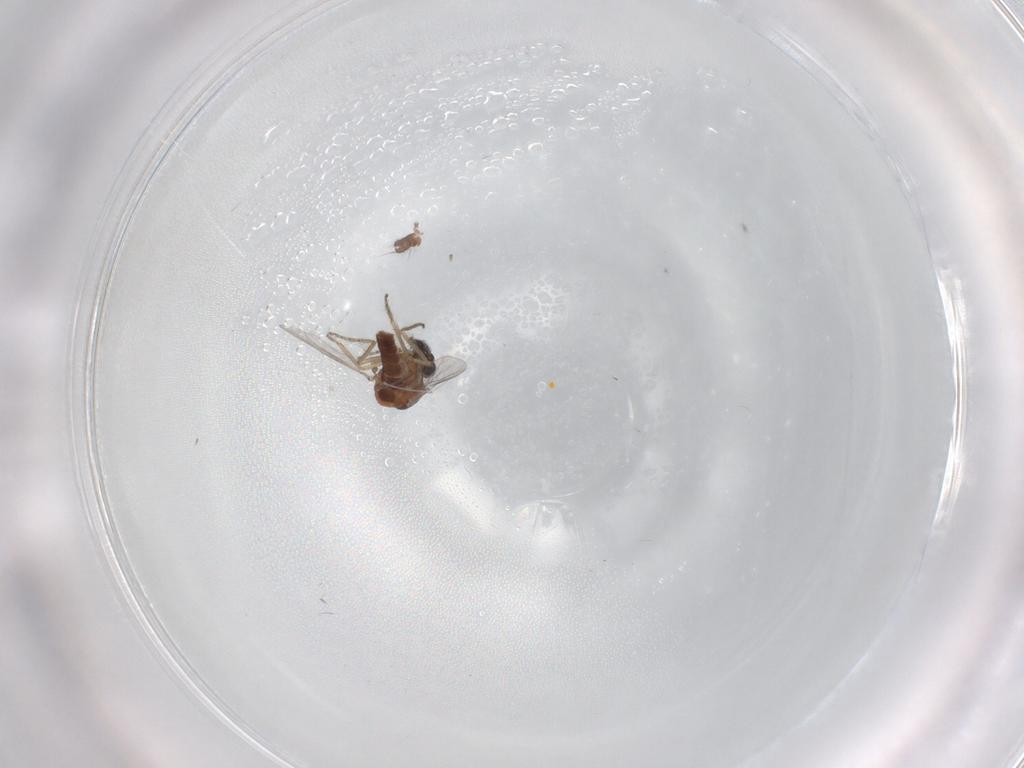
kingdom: Animalia
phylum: Arthropoda
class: Insecta
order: Diptera
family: Ceratopogonidae
